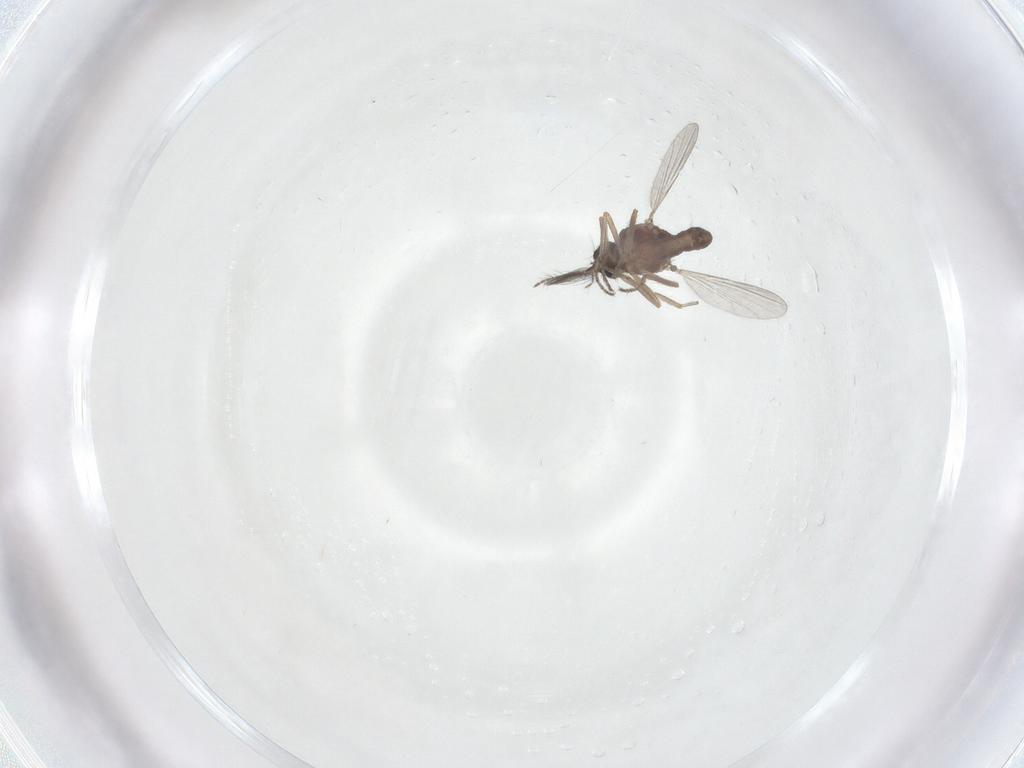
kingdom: Animalia
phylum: Arthropoda
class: Insecta
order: Diptera
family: Ceratopogonidae
